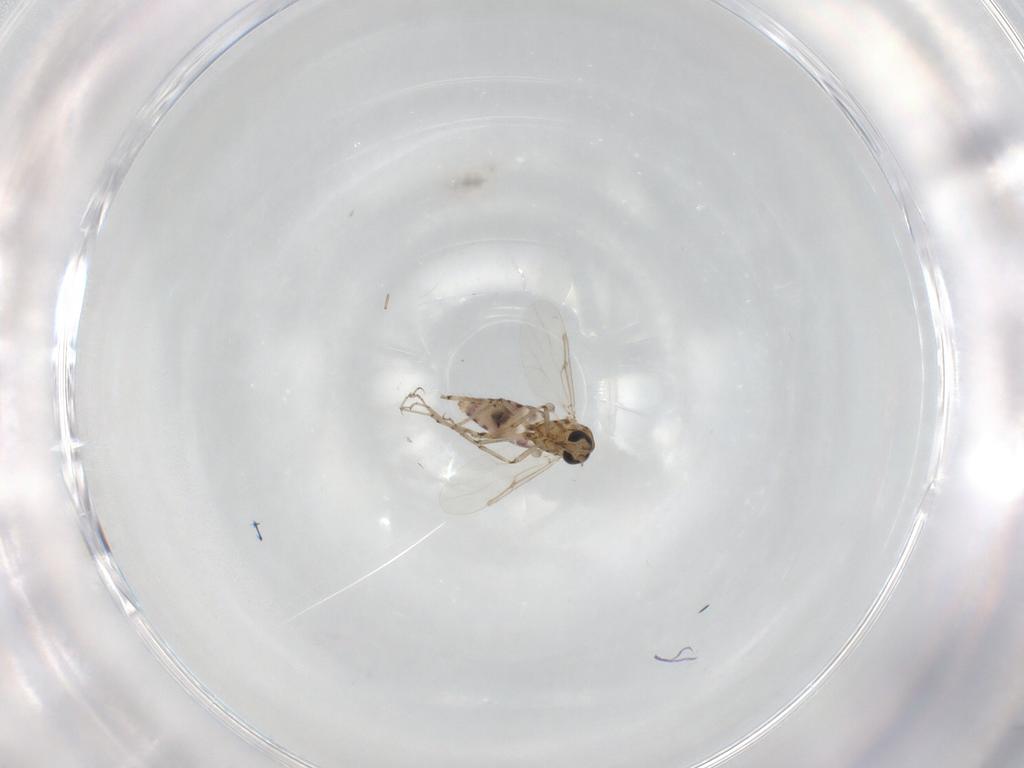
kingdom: Animalia
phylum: Arthropoda
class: Insecta
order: Diptera
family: Ceratopogonidae
